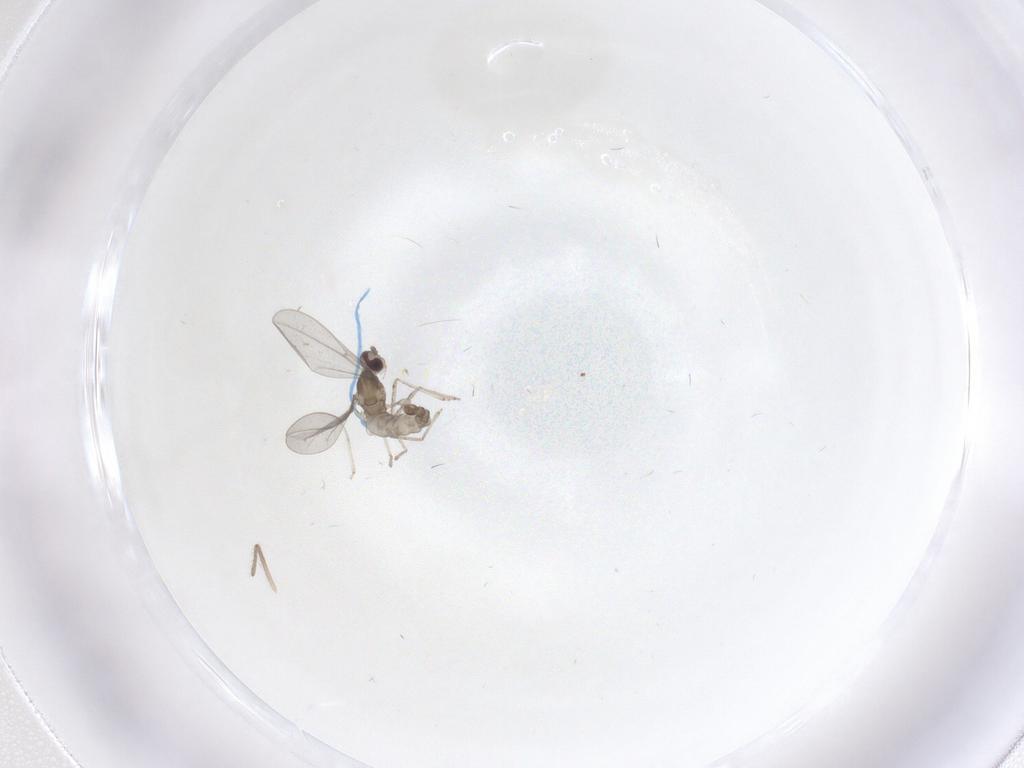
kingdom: Animalia
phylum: Arthropoda
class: Insecta
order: Diptera
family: Cecidomyiidae
